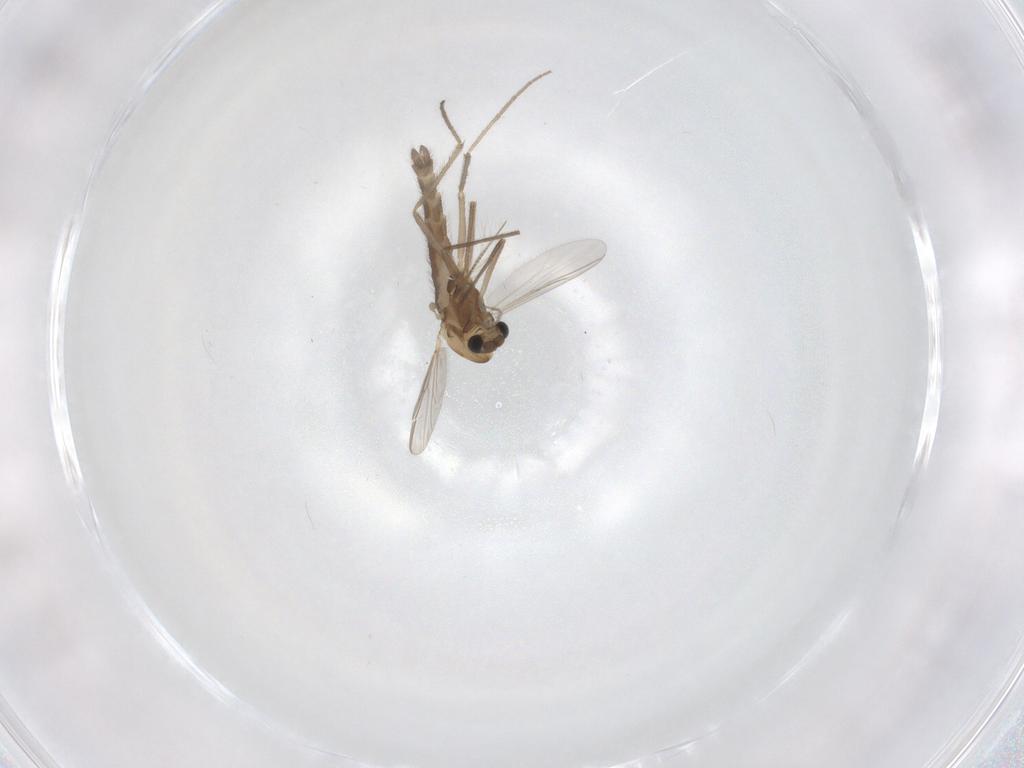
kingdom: Animalia
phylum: Arthropoda
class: Insecta
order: Diptera
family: Chironomidae
